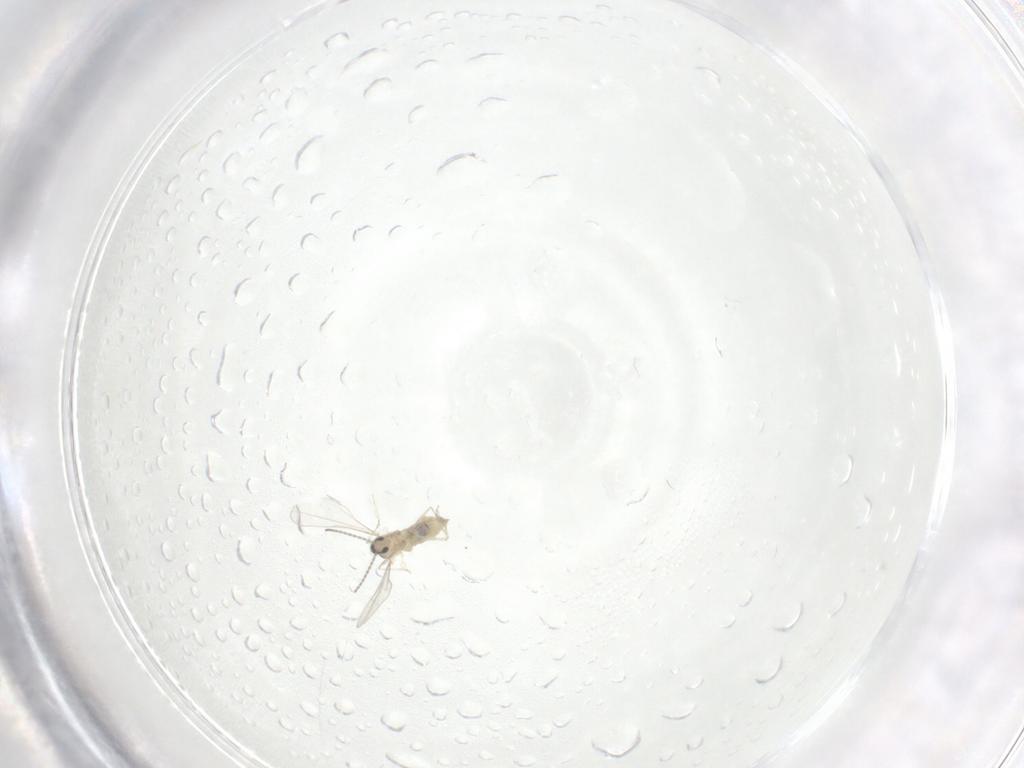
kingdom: Animalia
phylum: Arthropoda
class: Insecta
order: Diptera
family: Cecidomyiidae
